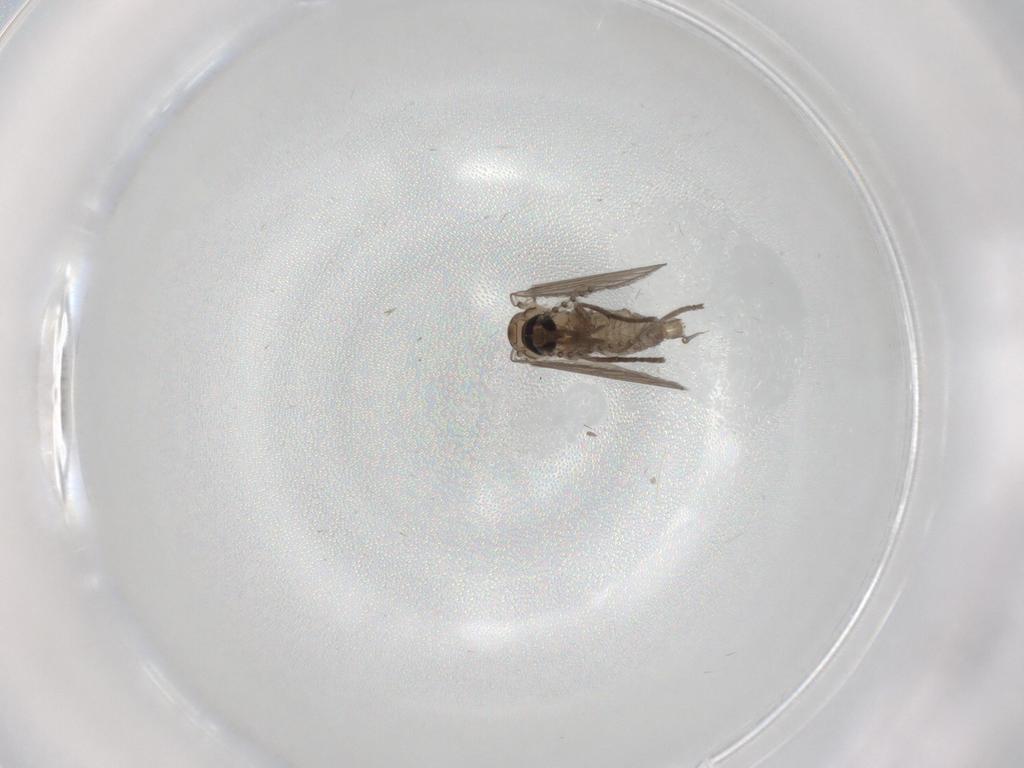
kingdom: Animalia
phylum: Arthropoda
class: Insecta
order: Diptera
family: Psychodidae
